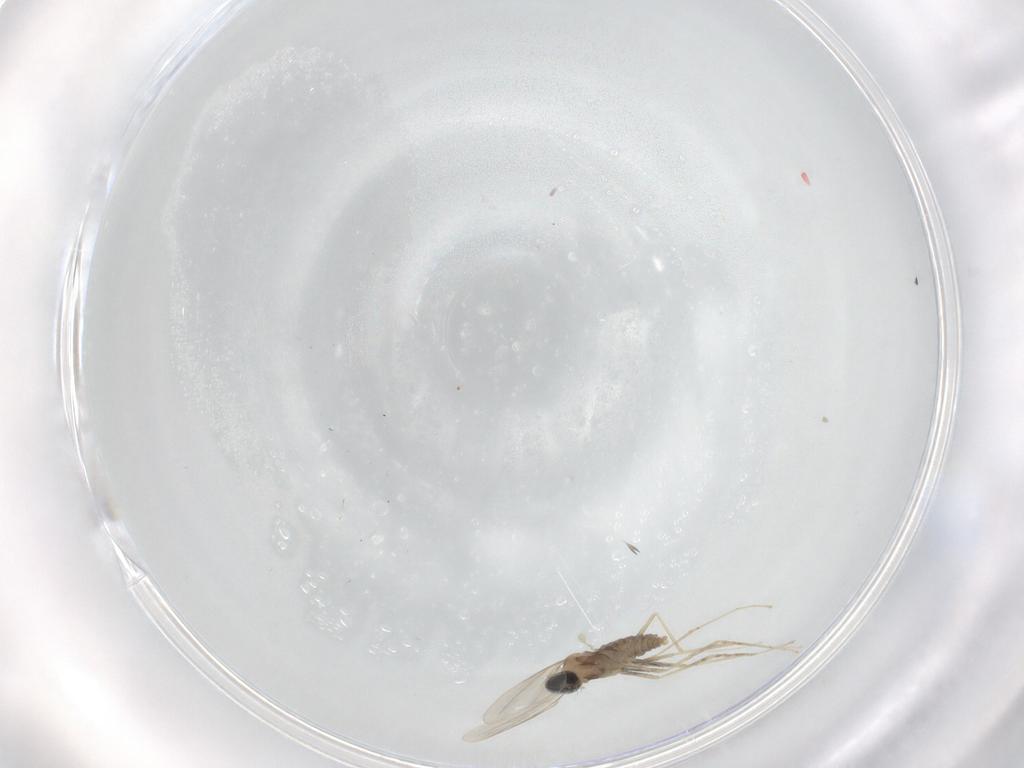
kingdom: Animalia
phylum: Arthropoda
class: Insecta
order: Diptera
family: Cecidomyiidae
